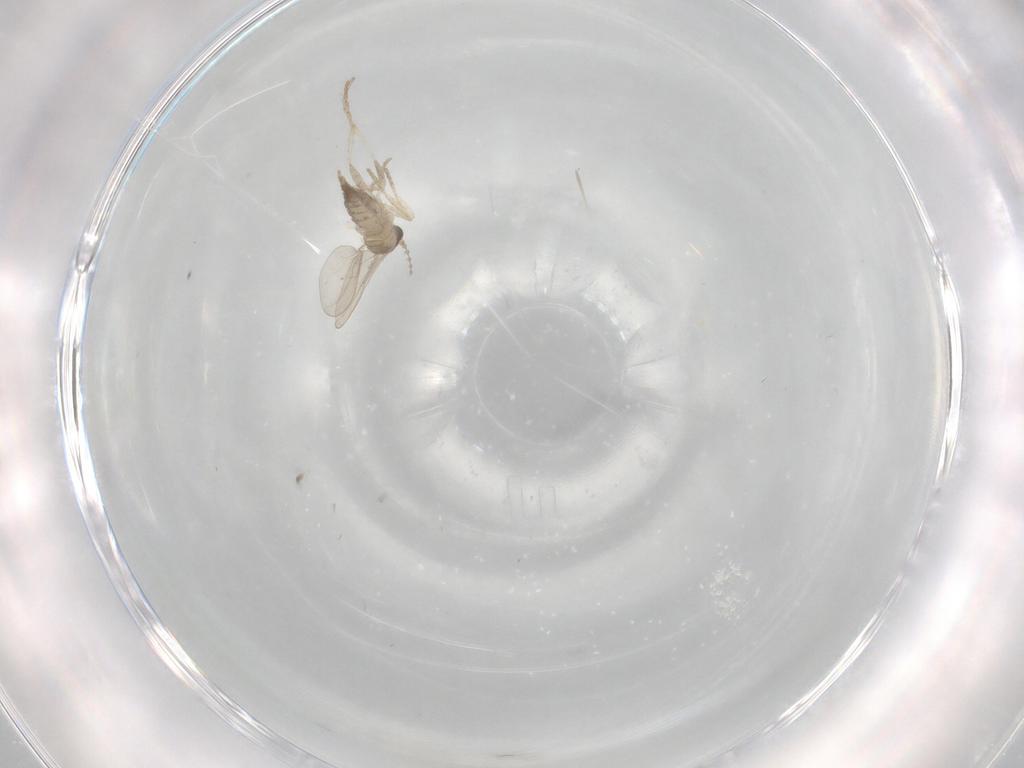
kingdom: Animalia
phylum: Arthropoda
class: Insecta
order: Diptera
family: Cecidomyiidae
